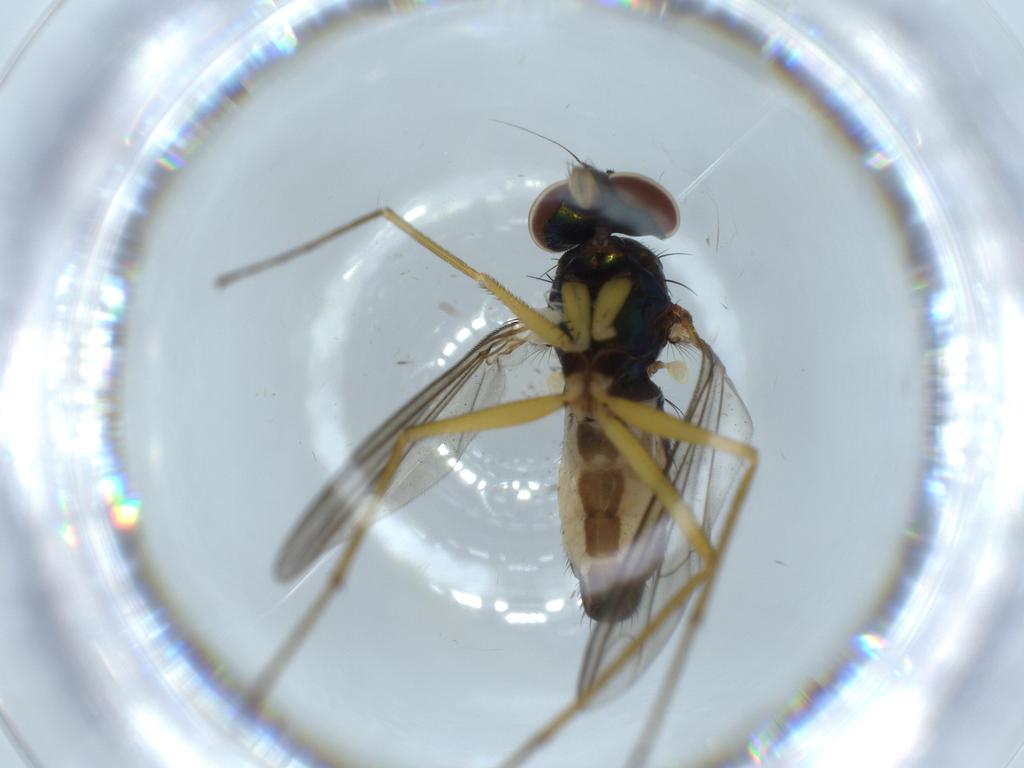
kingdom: Animalia
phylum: Arthropoda
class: Insecta
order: Diptera
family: Dolichopodidae
